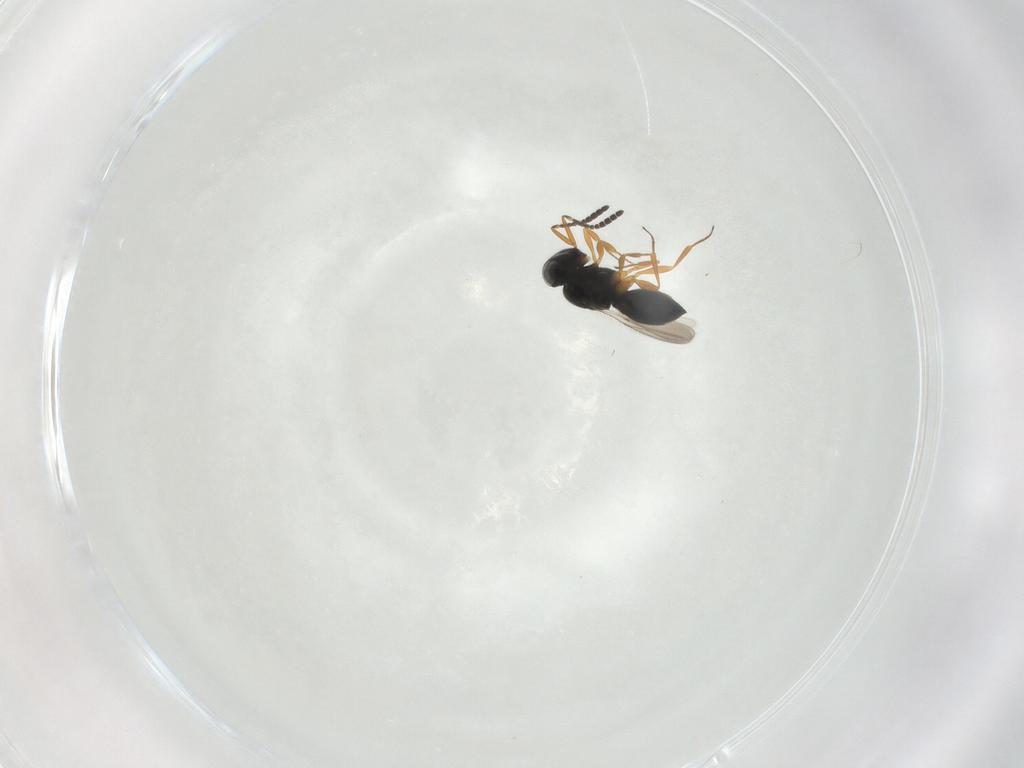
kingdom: Animalia
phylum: Arthropoda
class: Insecta
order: Hymenoptera
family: Scelionidae
